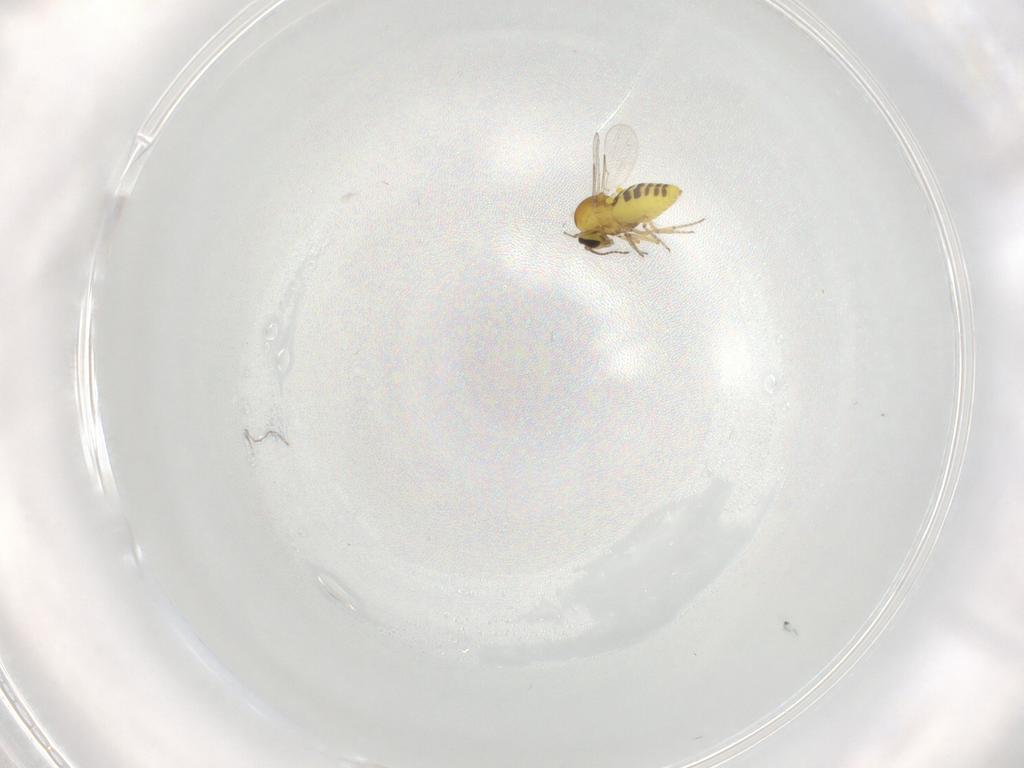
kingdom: Animalia
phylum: Arthropoda
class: Insecta
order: Diptera
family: Ceratopogonidae
